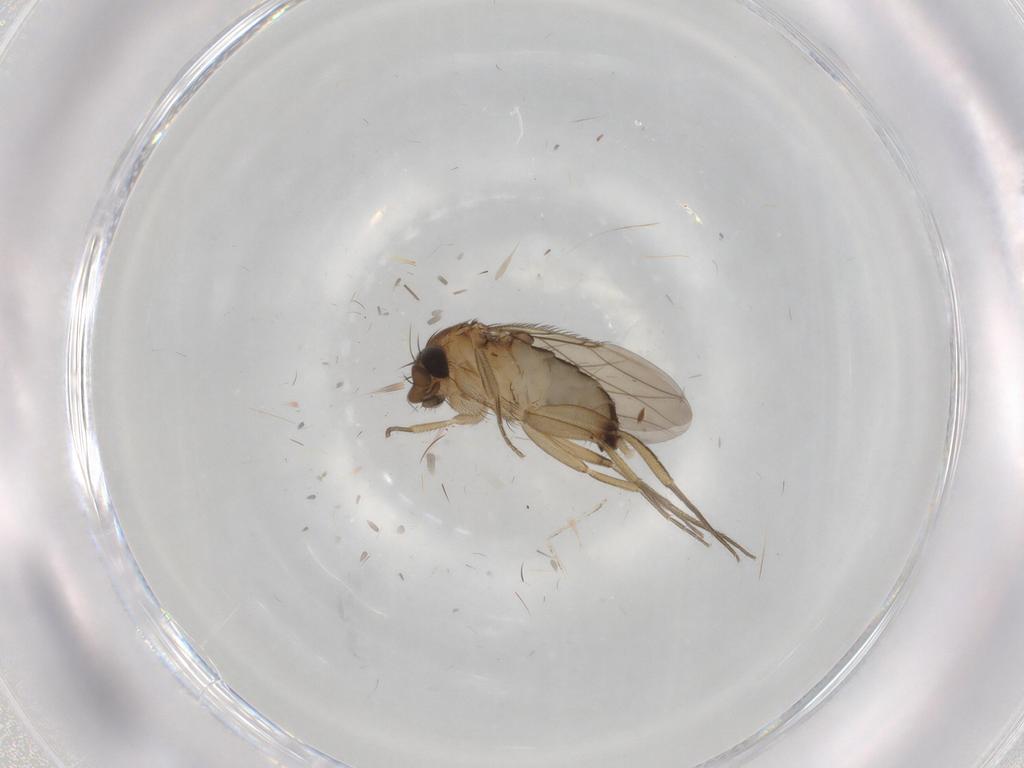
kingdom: Animalia
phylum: Arthropoda
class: Insecta
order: Diptera
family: Phoridae
